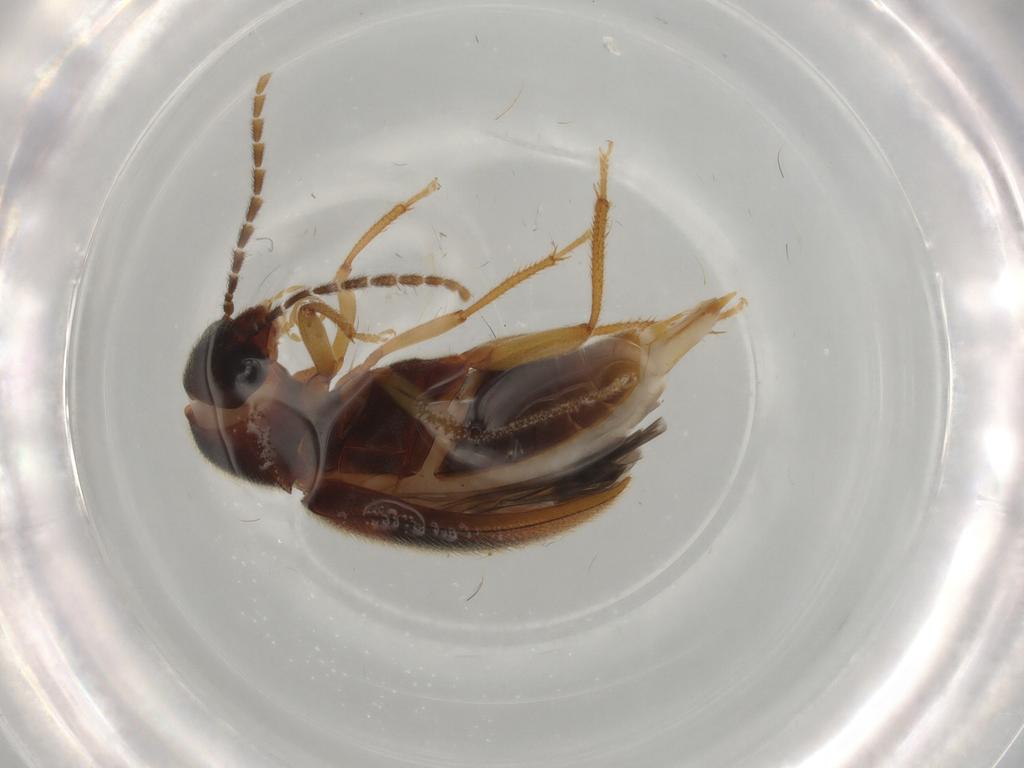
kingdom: Animalia
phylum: Arthropoda
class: Insecta
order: Coleoptera
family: Ptilodactylidae
